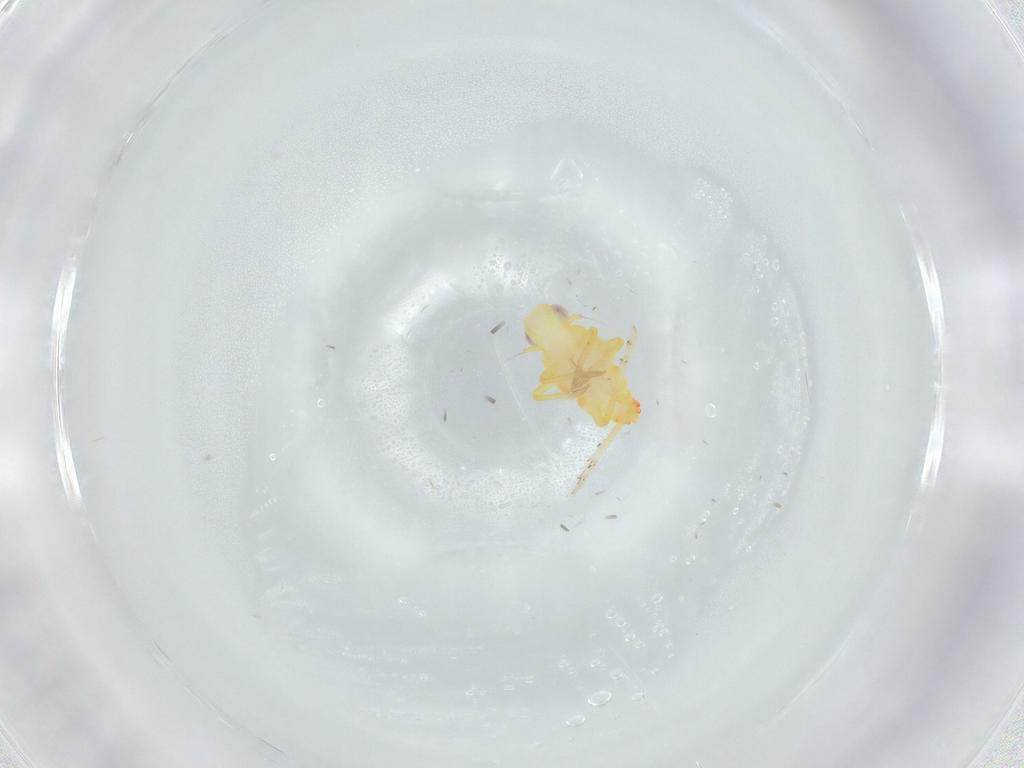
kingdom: Animalia
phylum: Arthropoda
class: Insecta
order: Hemiptera
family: Tropiduchidae
